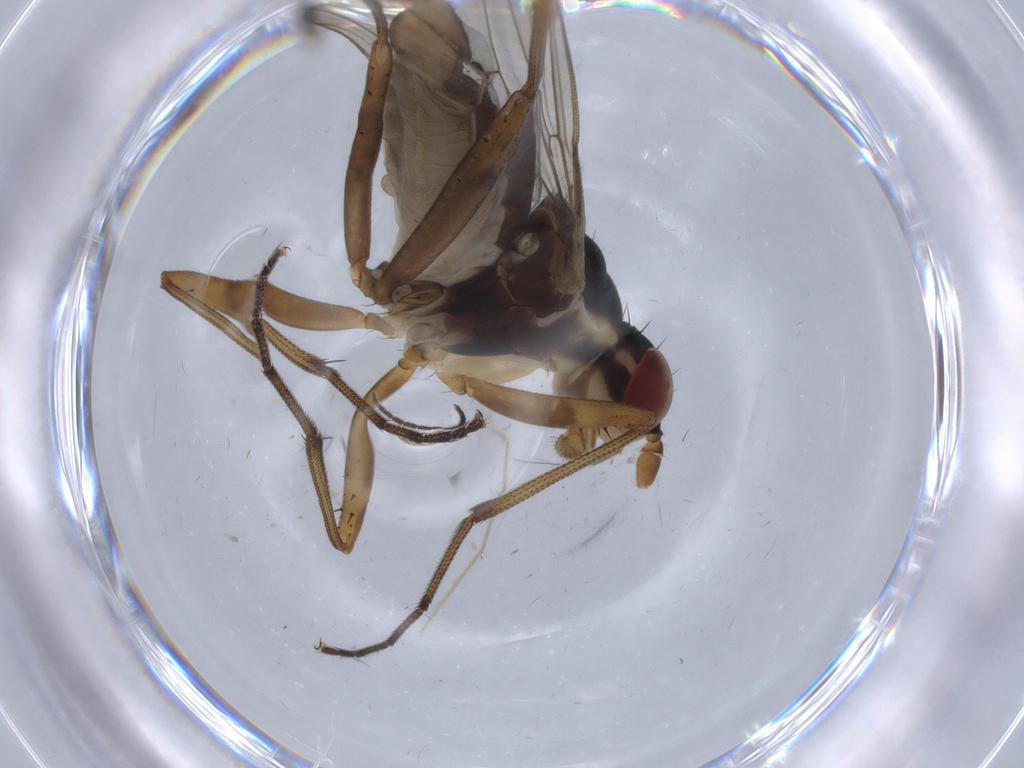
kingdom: Animalia
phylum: Arthropoda
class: Insecta
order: Diptera
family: Chironomidae
